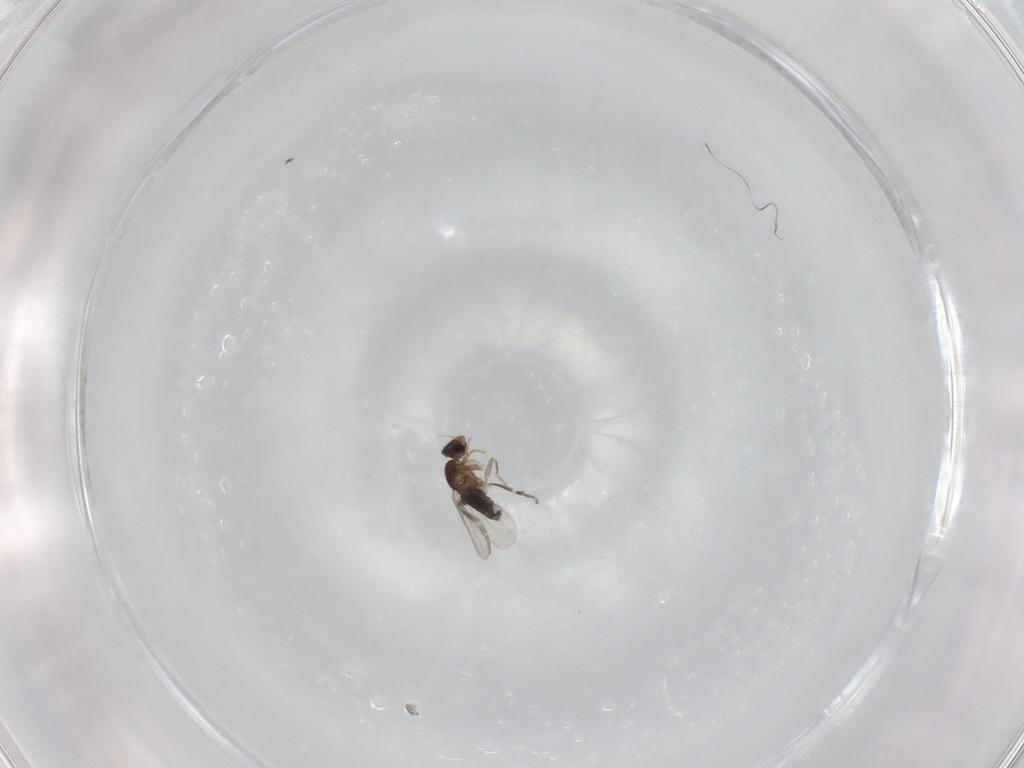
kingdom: Animalia
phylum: Arthropoda
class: Insecta
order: Diptera
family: Phoridae
